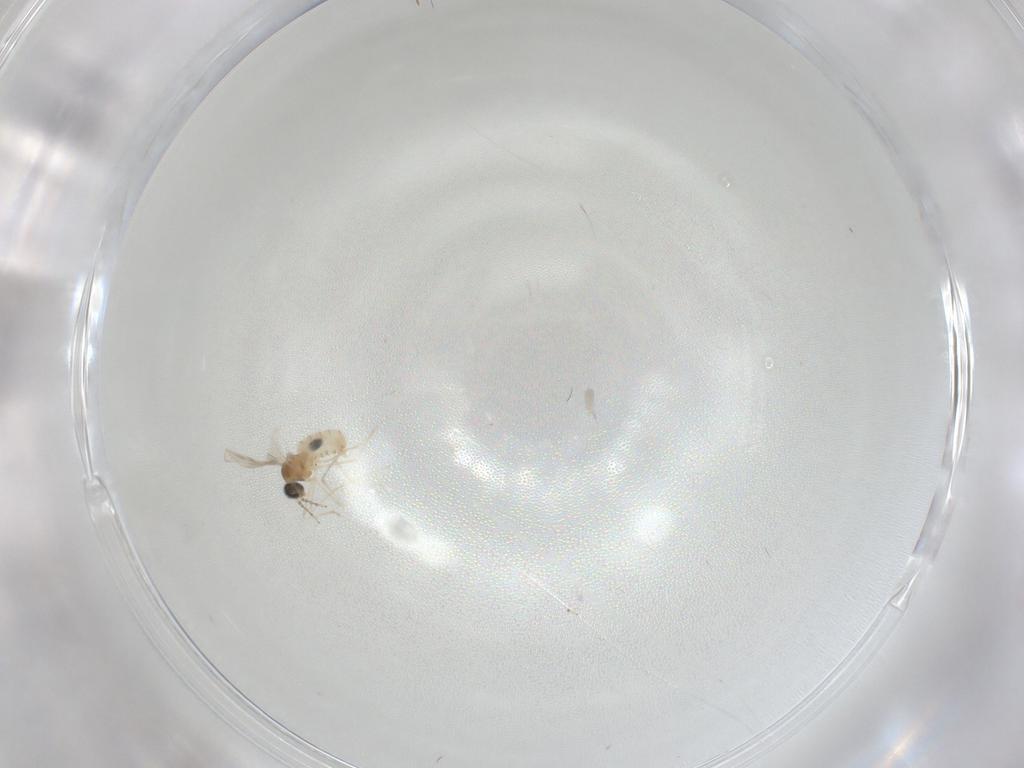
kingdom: Animalia
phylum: Arthropoda
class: Insecta
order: Diptera
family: Cecidomyiidae
